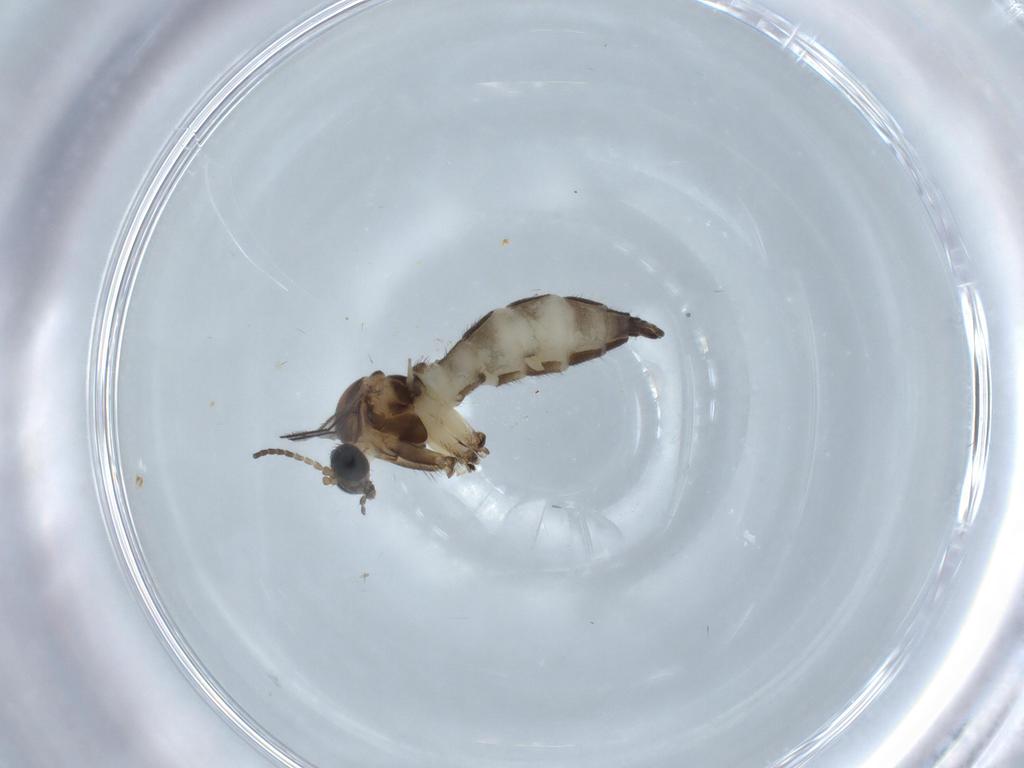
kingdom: Animalia
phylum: Arthropoda
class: Insecta
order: Diptera
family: Sciaridae
